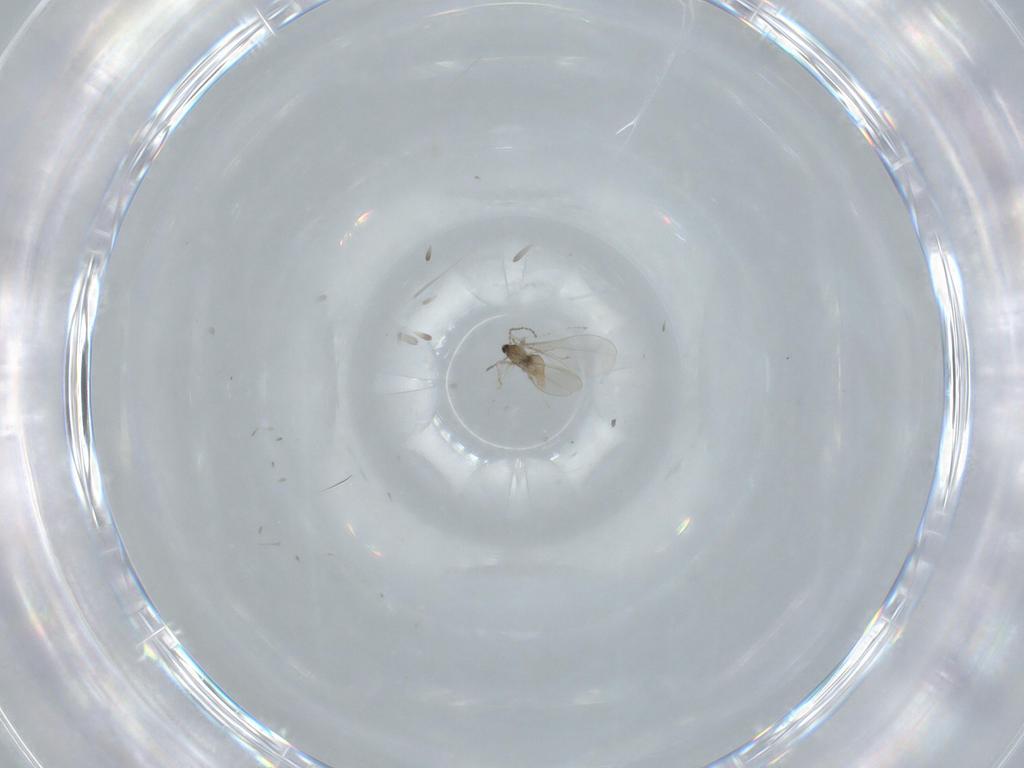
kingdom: Animalia
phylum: Arthropoda
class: Insecta
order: Diptera
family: Cecidomyiidae
